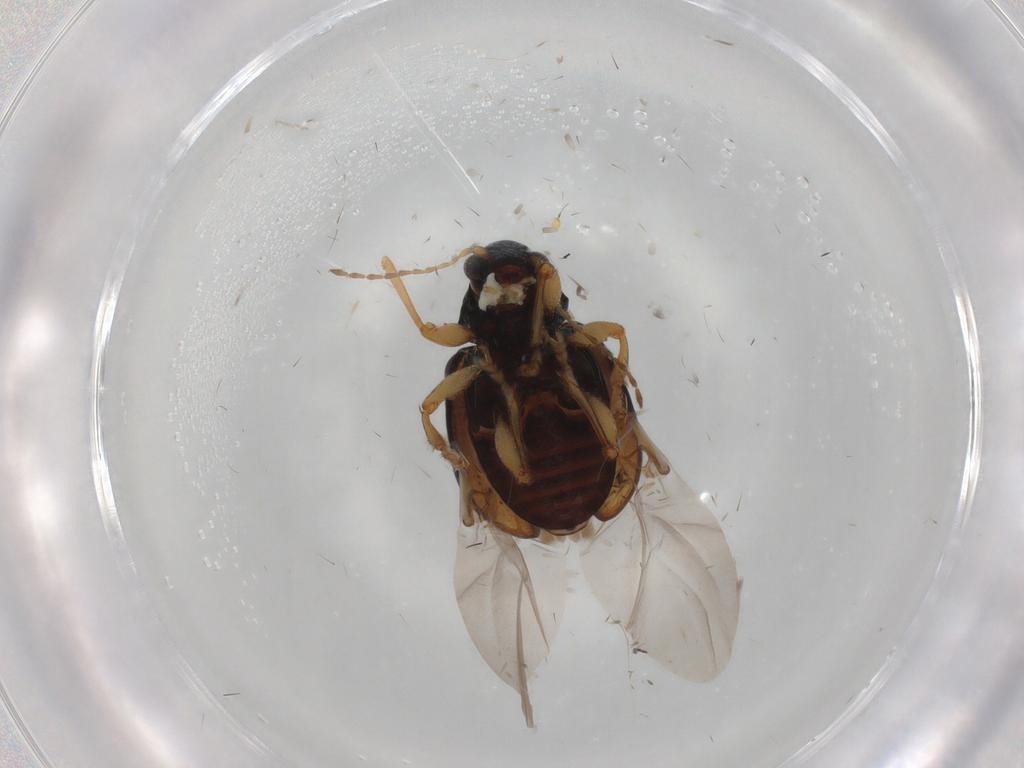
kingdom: Animalia
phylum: Arthropoda
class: Insecta
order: Coleoptera
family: Chrysomelidae
